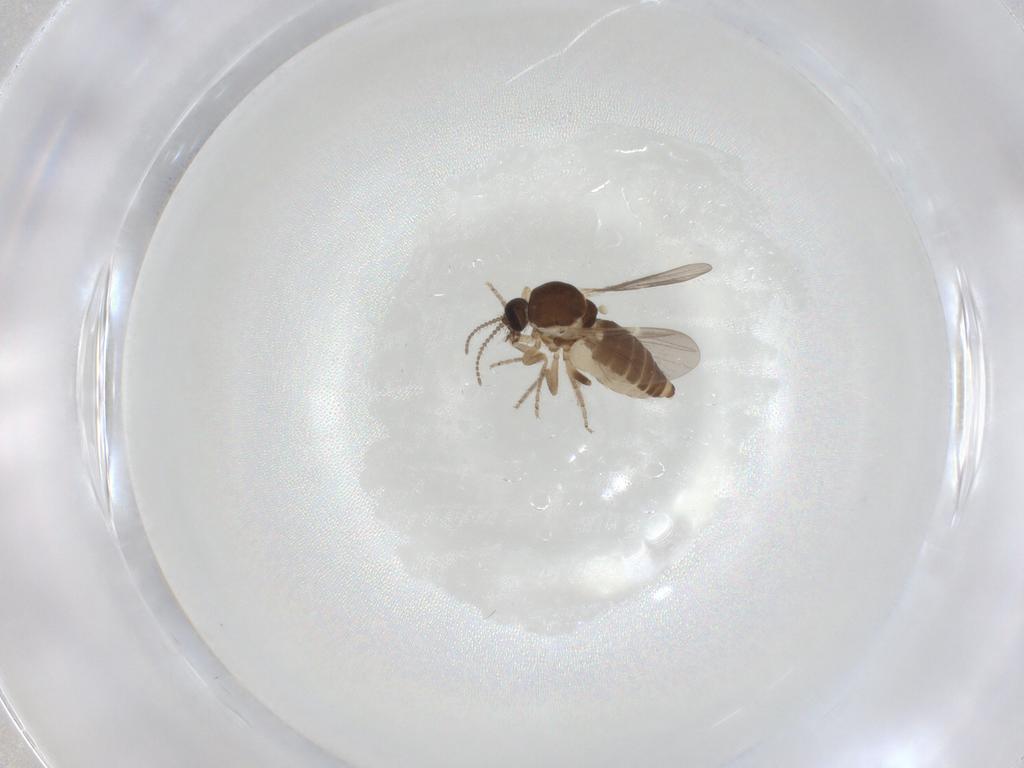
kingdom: Animalia
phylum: Arthropoda
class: Insecta
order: Diptera
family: Ceratopogonidae
